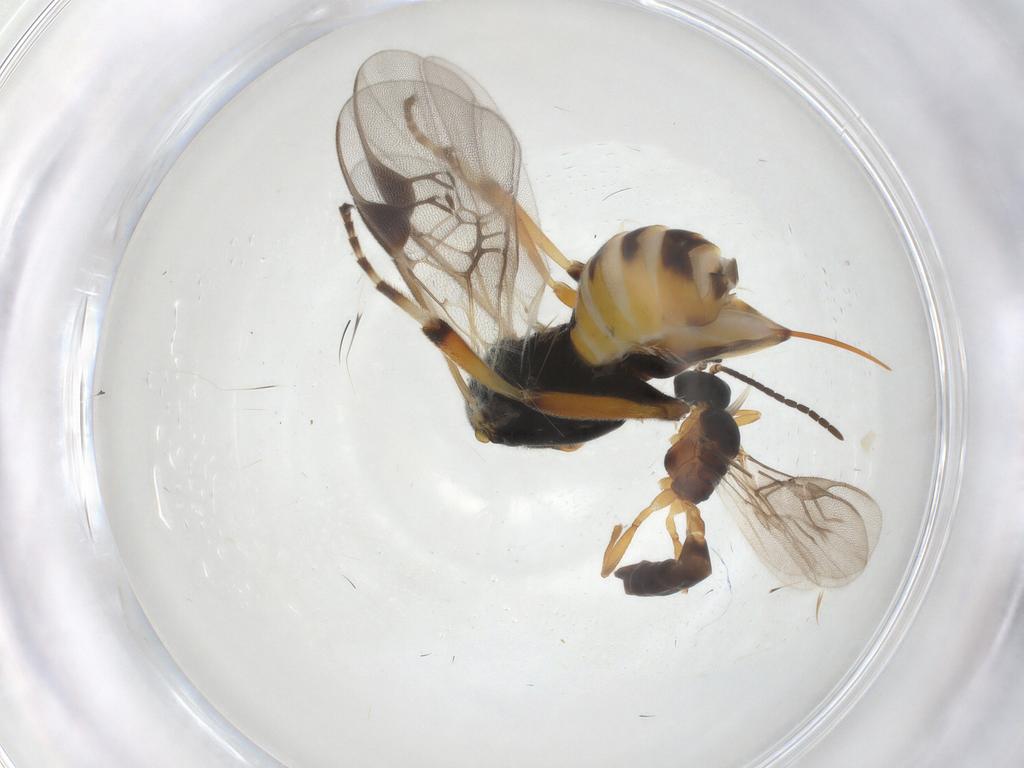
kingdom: Animalia
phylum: Arthropoda
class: Insecta
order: Hymenoptera
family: Braconidae
